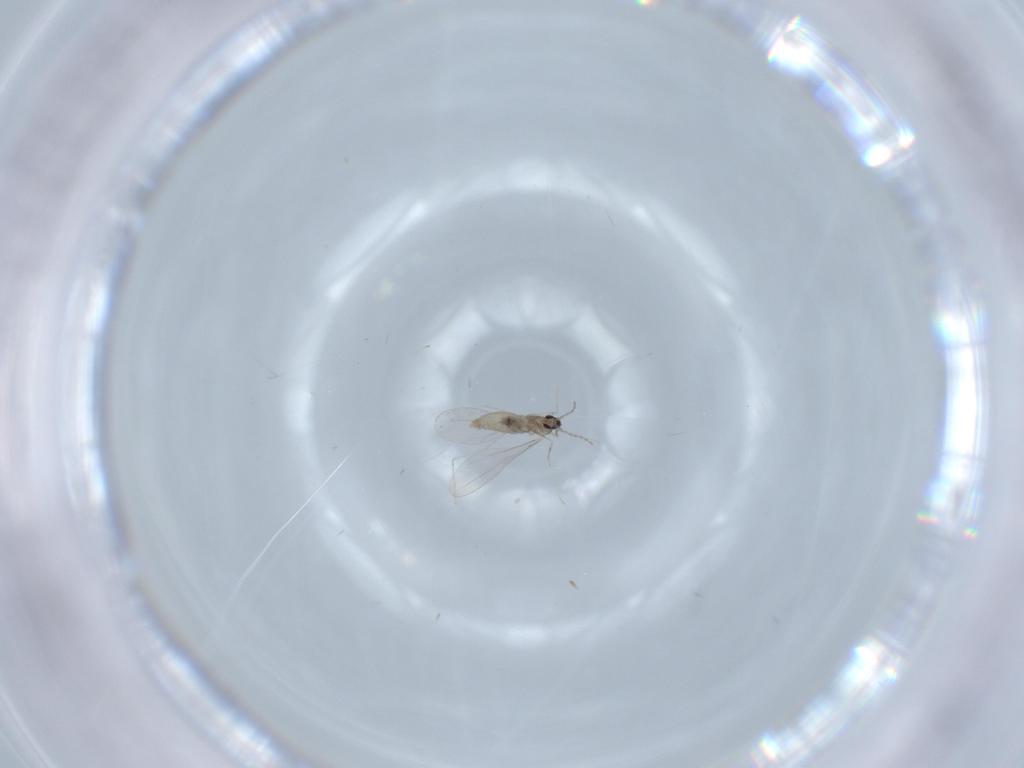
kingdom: Animalia
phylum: Arthropoda
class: Insecta
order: Diptera
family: Cecidomyiidae
